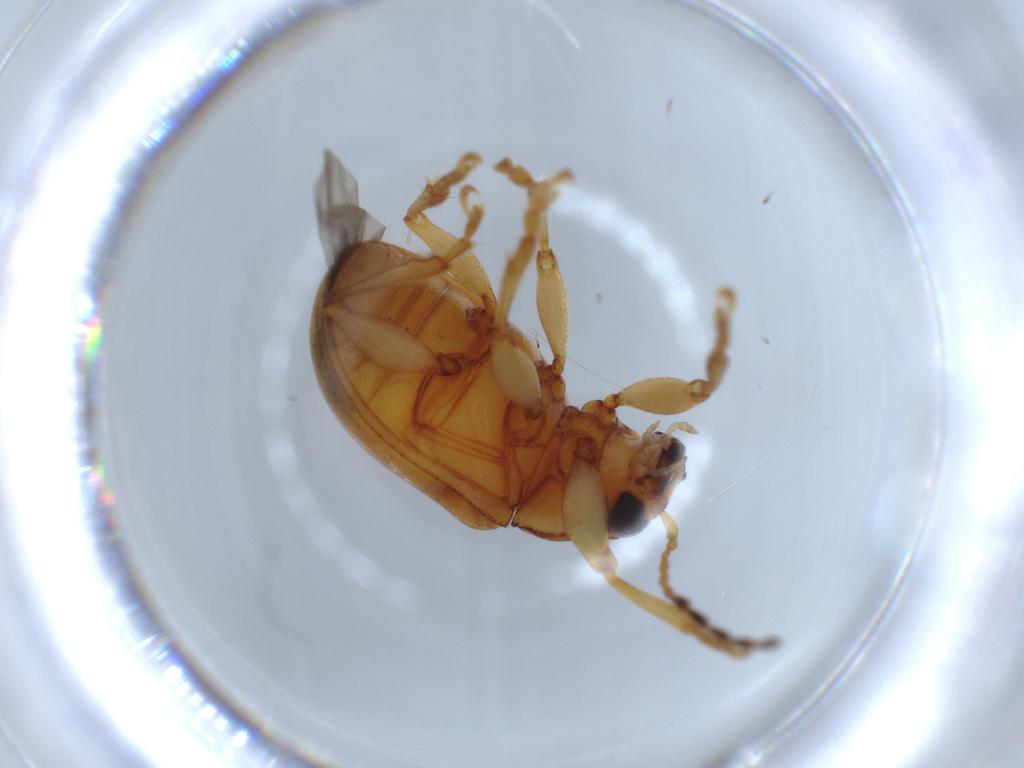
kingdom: Animalia
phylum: Arthropoda
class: Insecta
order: Coleoptera
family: Chrysomelidae
